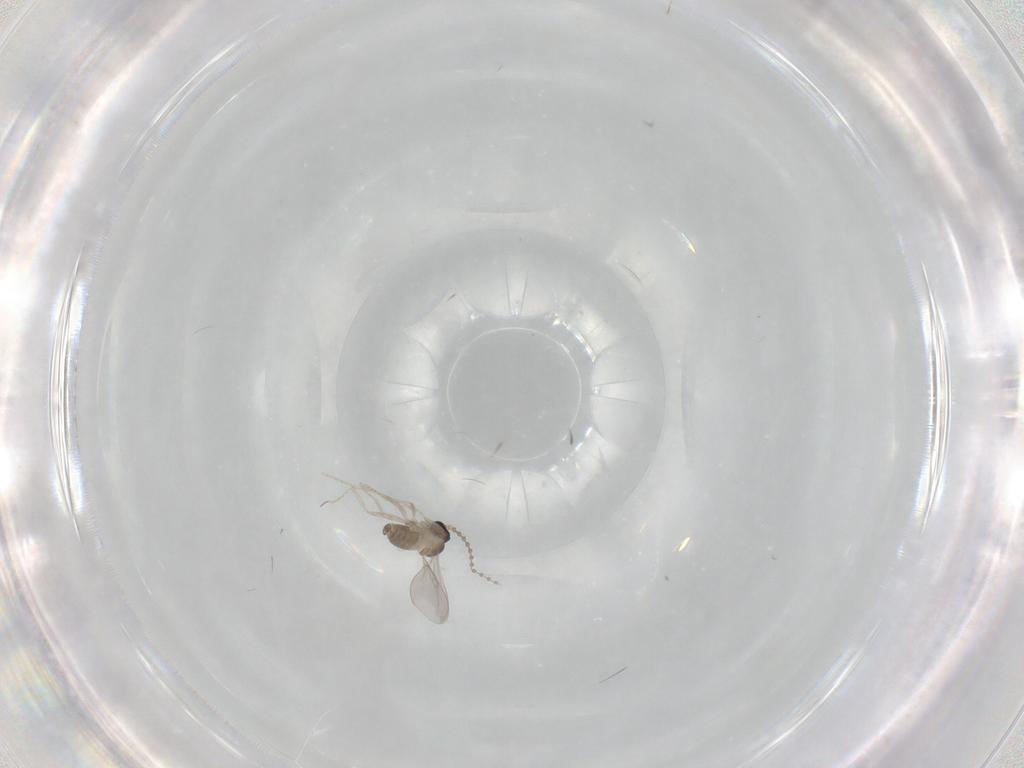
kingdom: Animalia
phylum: Arthropoda
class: Insecta
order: Diptera
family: Cecidomyiidae
